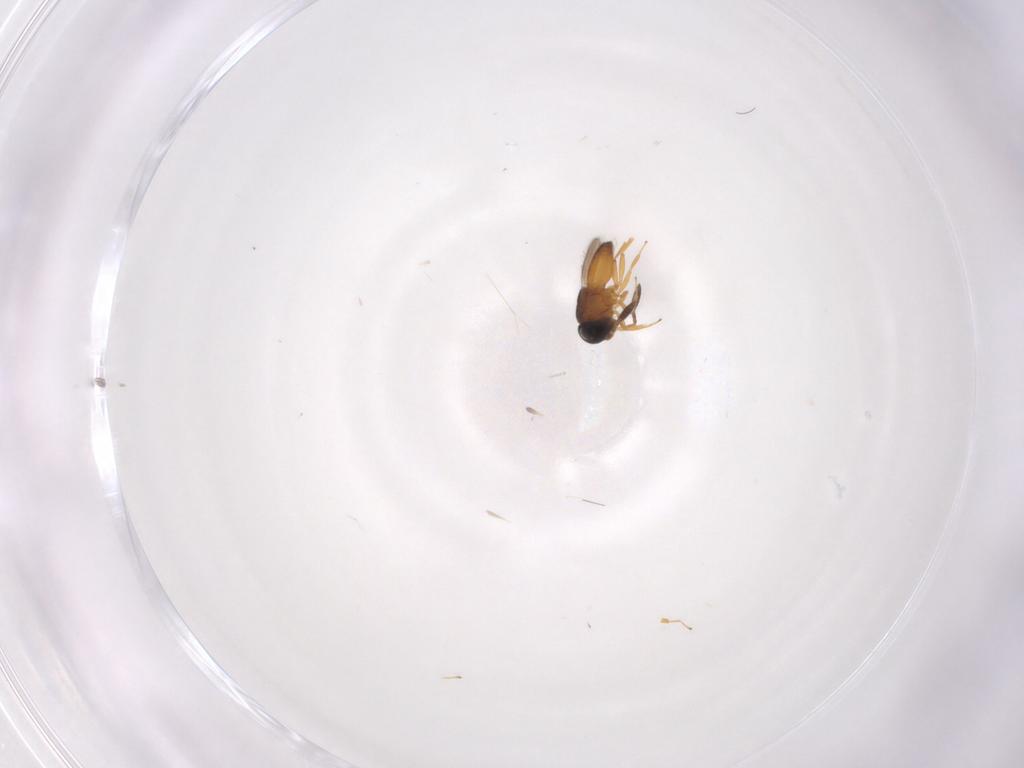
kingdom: Animalia
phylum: Arthropoda
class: Insecta
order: Hymenoptera
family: Scelionidae
